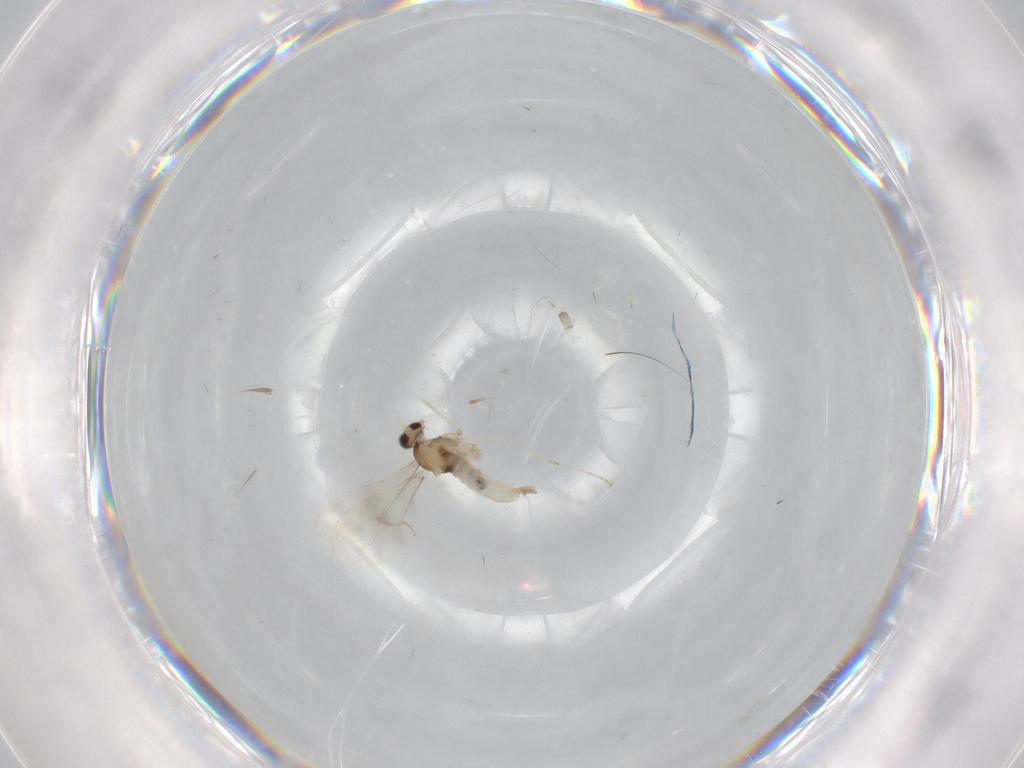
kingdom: Animalia
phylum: Arthropoda
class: Insecta
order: Diptera
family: Cecidomyiidae
